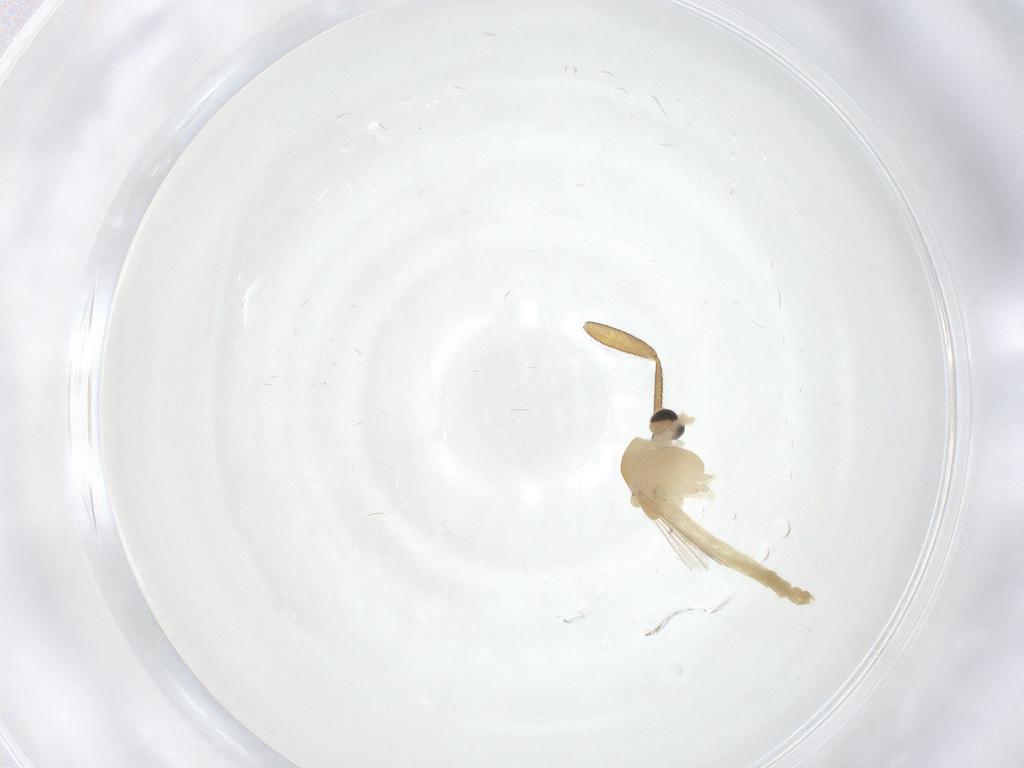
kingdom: Animalia
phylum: Arthropoda
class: Insecta
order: Diptera
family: Chironomidae
